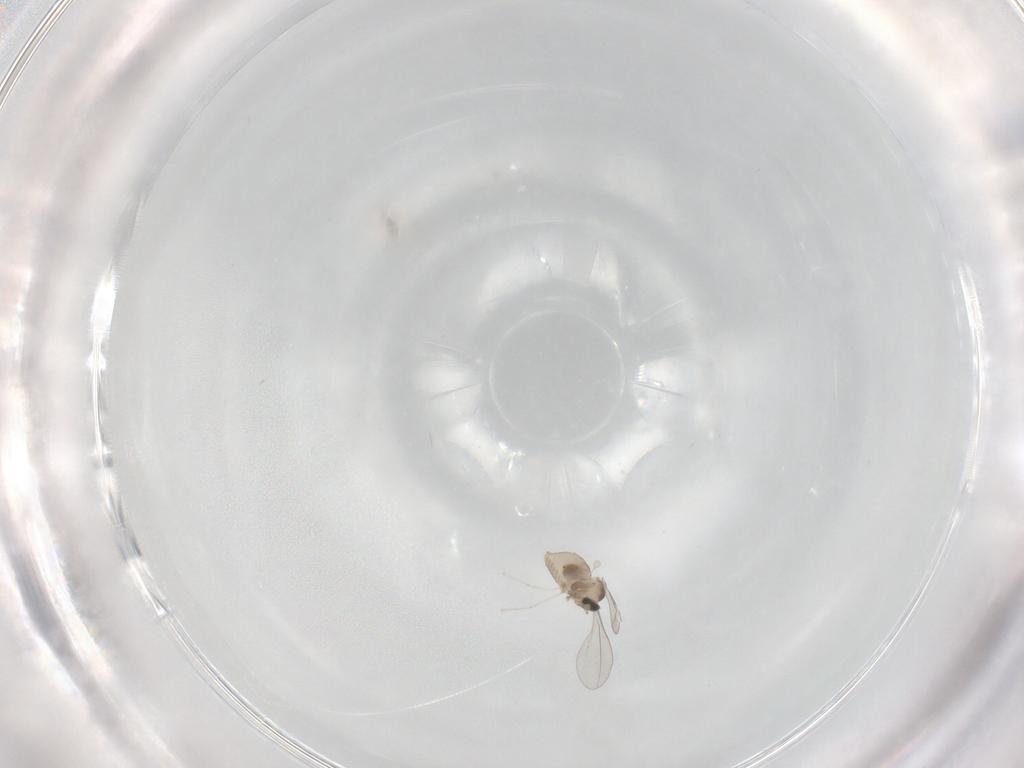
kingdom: Animalia
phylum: Arthropoda
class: Insecta
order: Diptera
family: Cecidomyiidae
